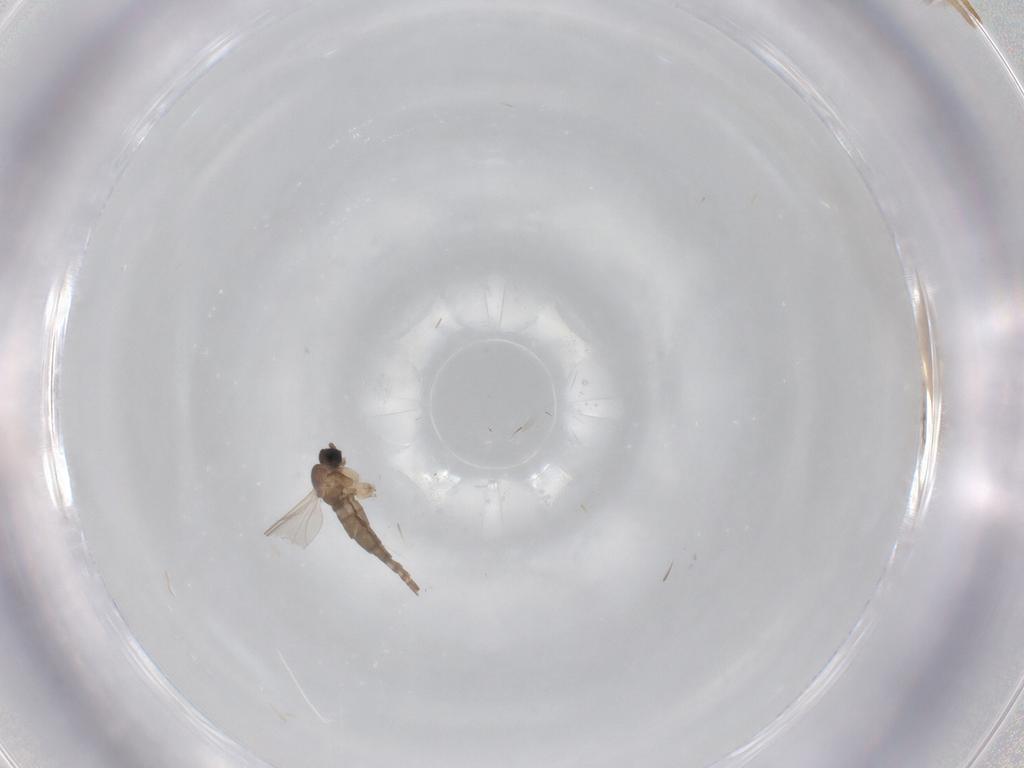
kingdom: Animalia
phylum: Arthropoda
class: Insecta
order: Diptera
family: Sciaridae
